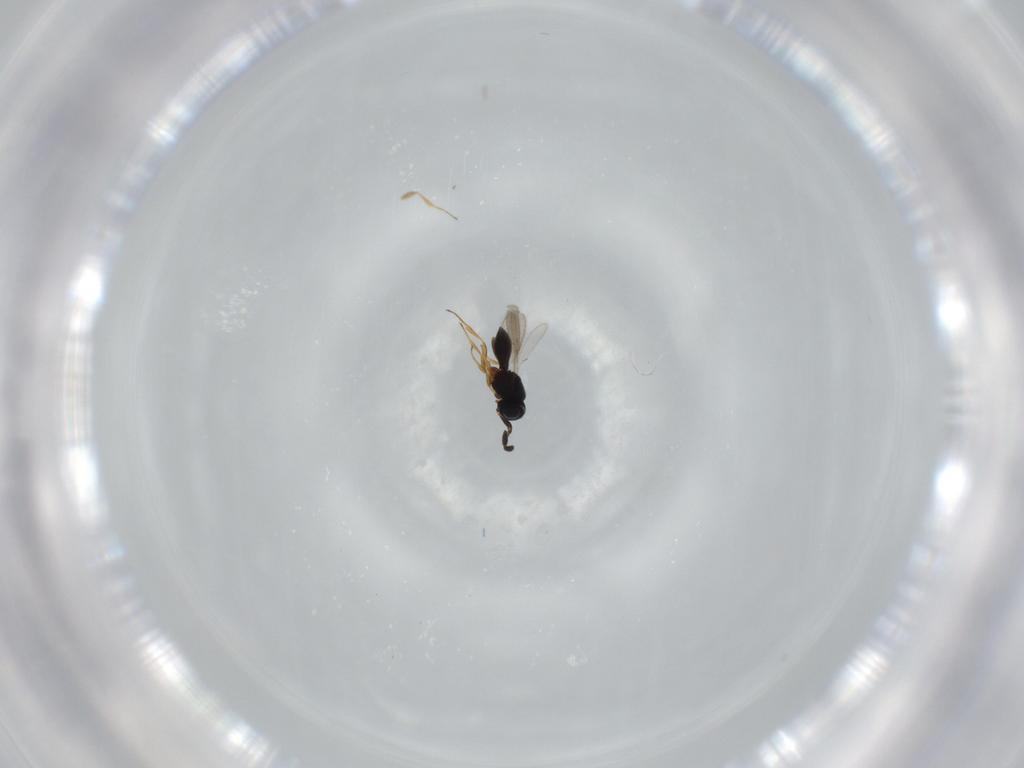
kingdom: Animalia
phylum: Arthropoda
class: Insecta
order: Hymenoptera
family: Scelionidae
